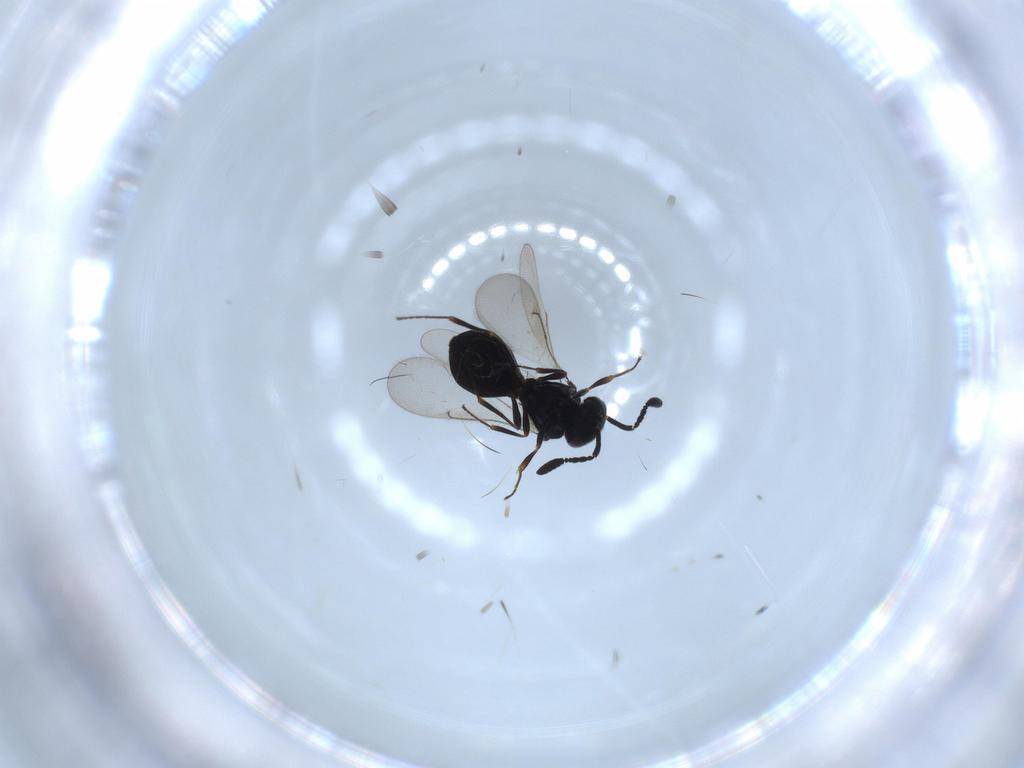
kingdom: Animalia
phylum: Arthropoda
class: Insecta
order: Hymenoptera
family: Scelionidae
